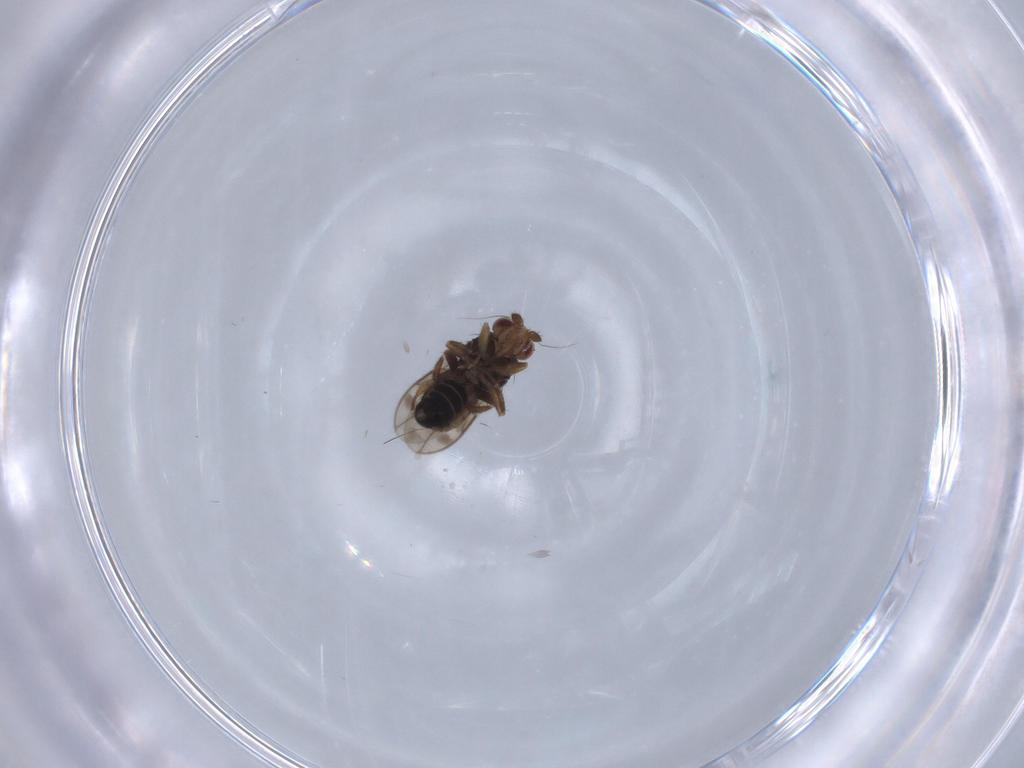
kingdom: Animalia
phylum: Arthropoda
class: Insecta
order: Diptera
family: Sphaeroceridae
